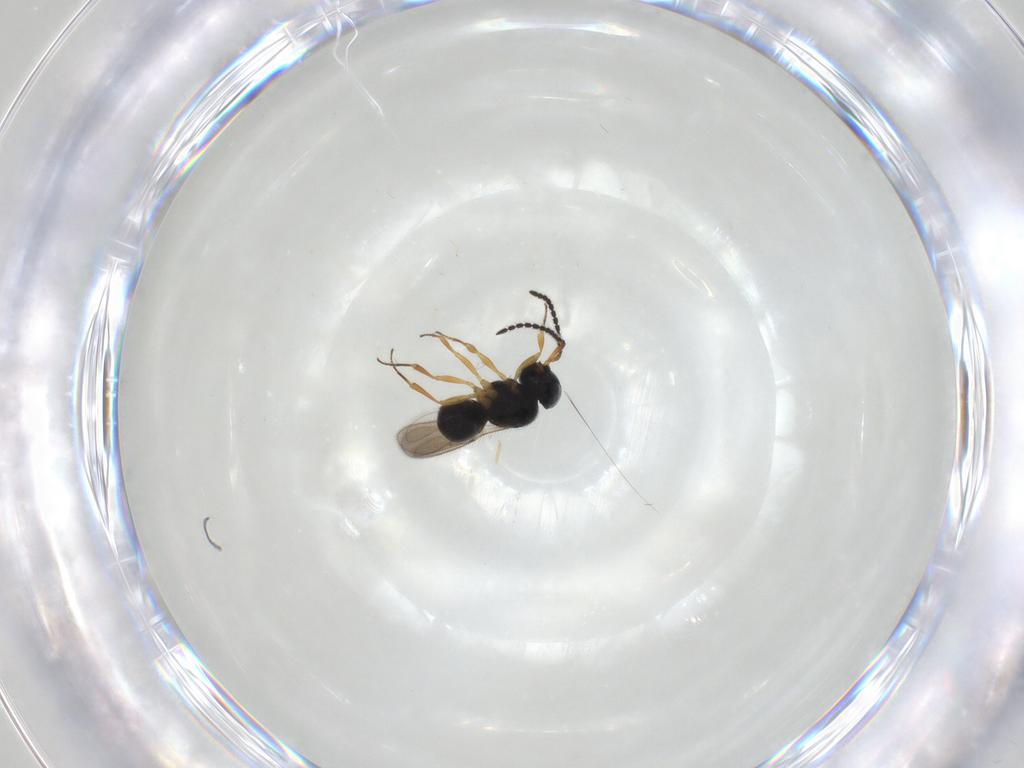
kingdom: Animalia
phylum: Arthropoda
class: Insecta
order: Hymenoptera
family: Scelionidae
